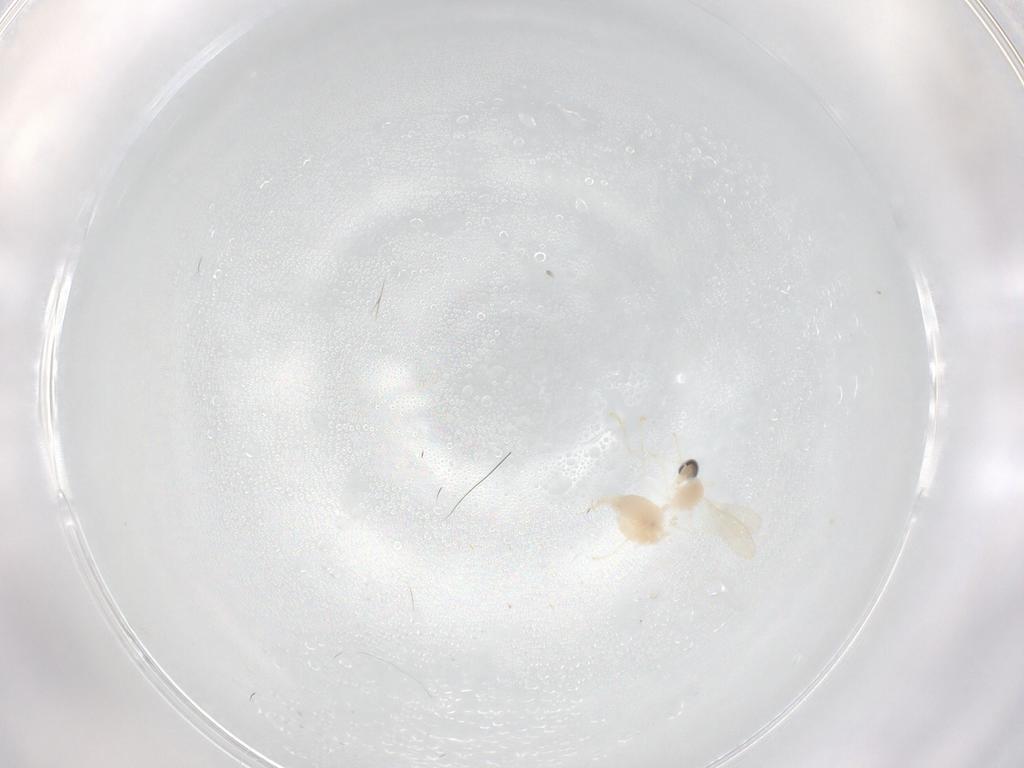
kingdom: Animalia
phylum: Arthropoda
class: Insecta
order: Diptera
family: Cecidomyiidae
